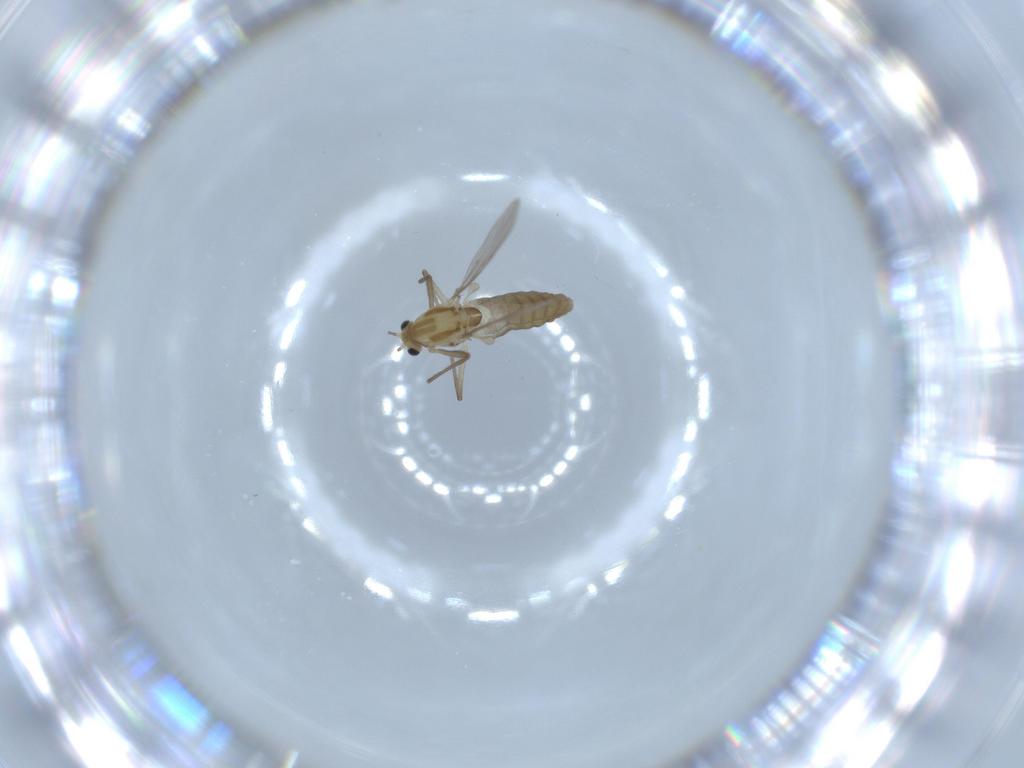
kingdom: Animalia
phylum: Arthropoda
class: Insecta
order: Diptera
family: Chironomidae
